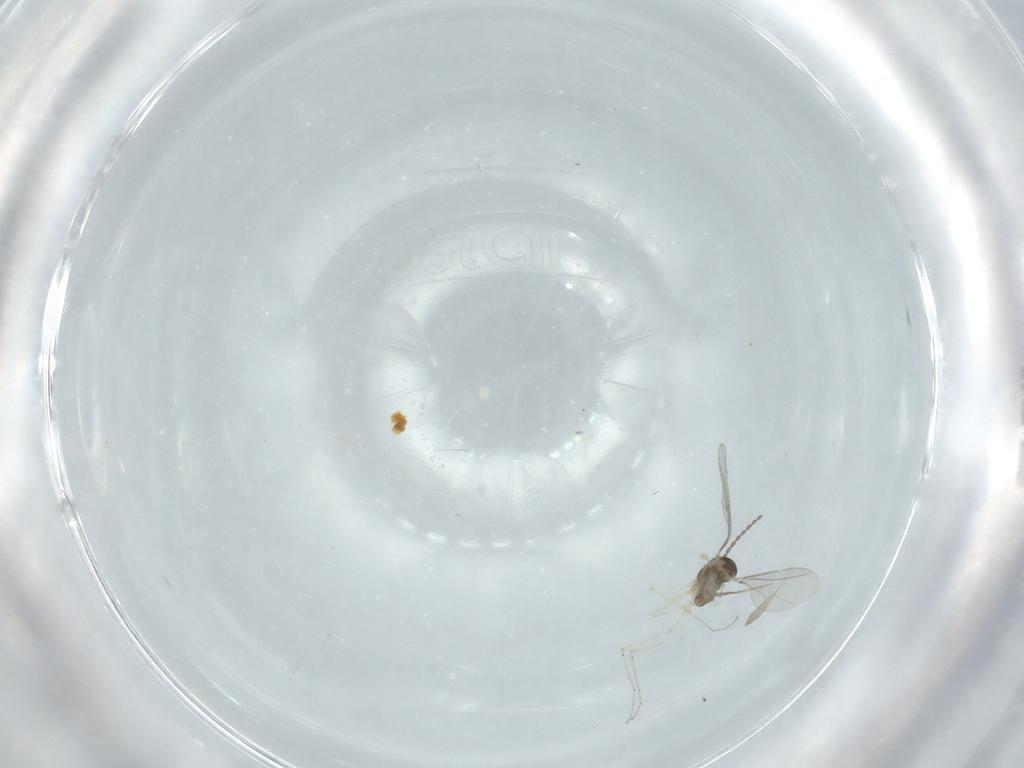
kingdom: Animalia
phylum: Arthropoda
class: Insecta
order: Diptera
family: Cecidomyiidae
